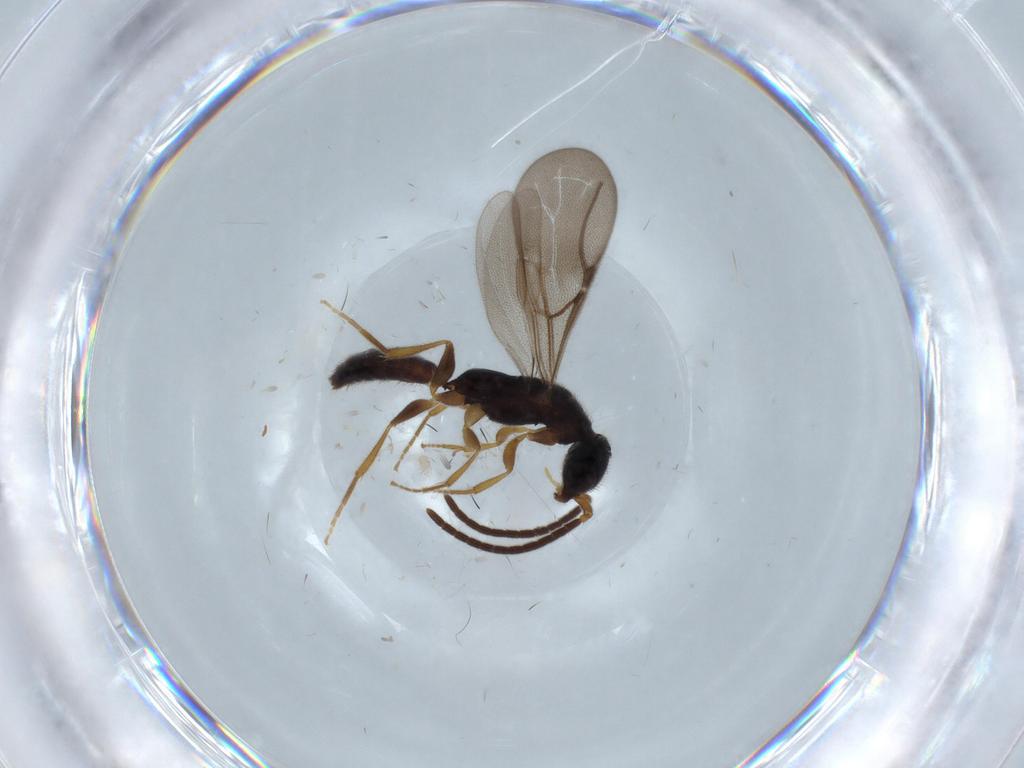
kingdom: Animalia
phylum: Arthropoda
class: Insecta
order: Hymenoptera
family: Bethylidae
